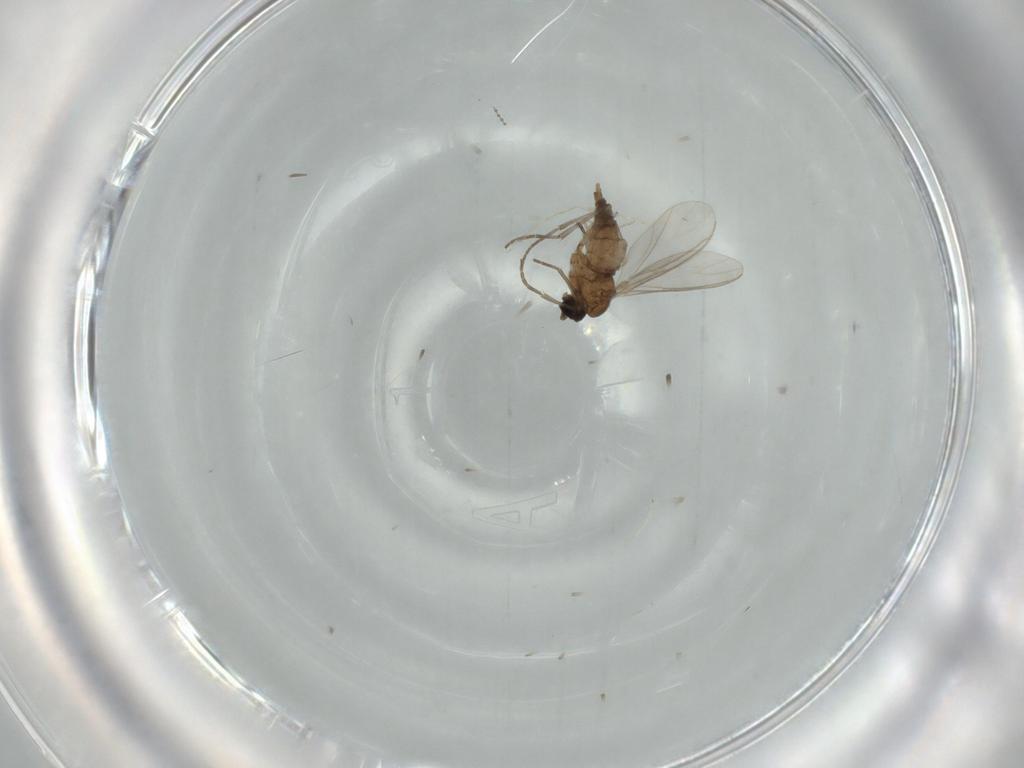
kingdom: Animalia
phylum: Arthropoda
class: Insecta
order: Diptera
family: Sciaridae
